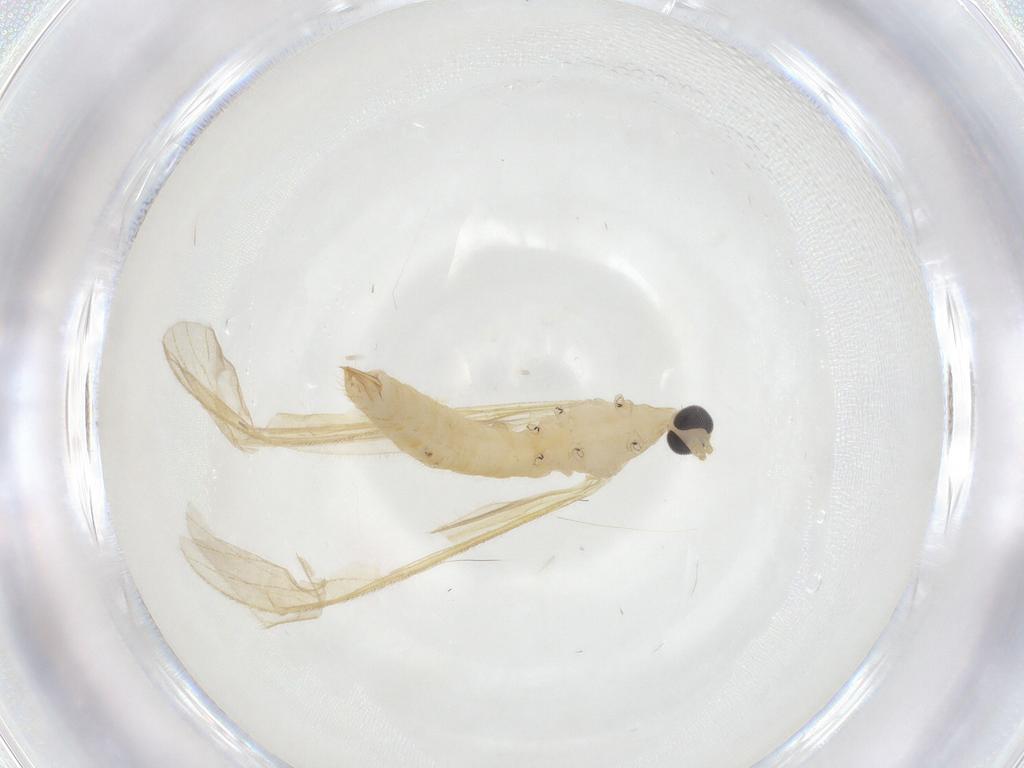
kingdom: Animalia
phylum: Arthropoda
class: Insecta
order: Diptera
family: Limoniidae
